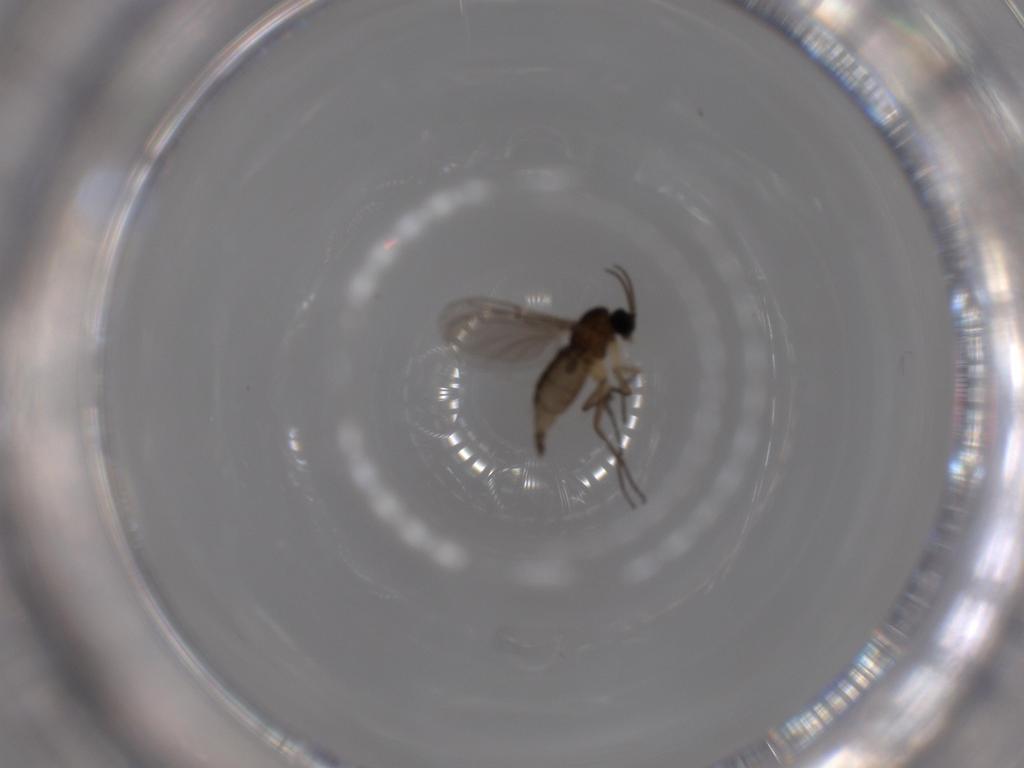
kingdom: Animalia
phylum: Arthropoda
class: Insecta
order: Diptera
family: Sciaridae
